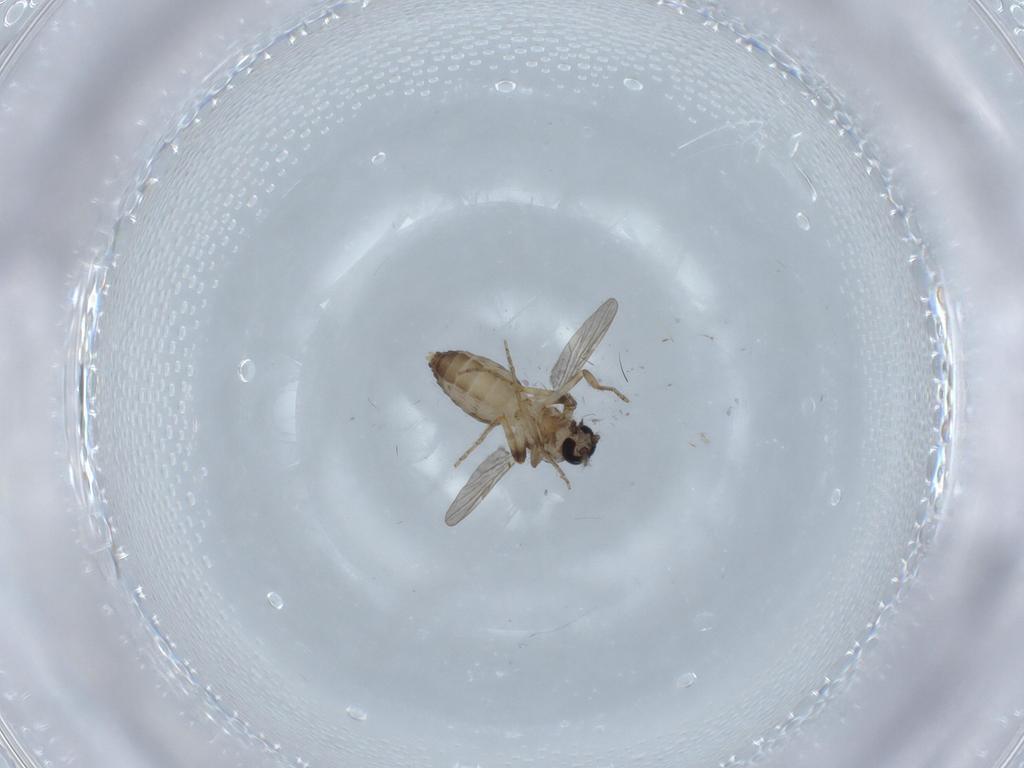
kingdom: Animalia
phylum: Arthropoda
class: Insecta
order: Diptera
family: Ceratopogonidae
